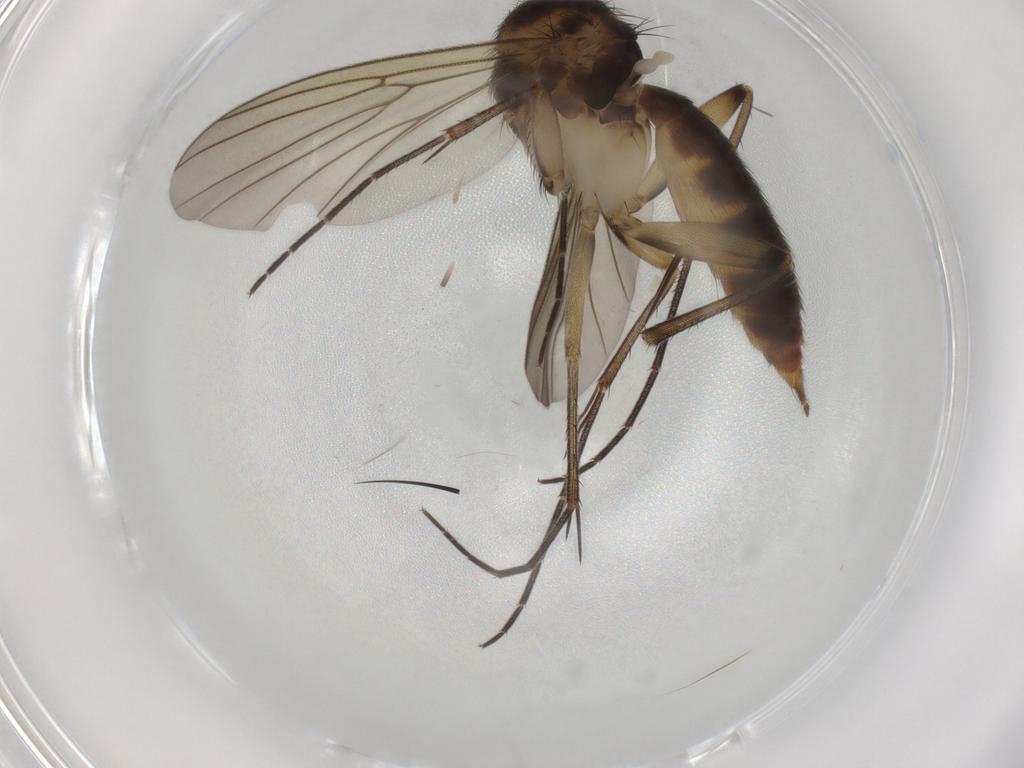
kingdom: Animalia
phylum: Arthropoda
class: Insecta
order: Diptera
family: Mycetophilidae
